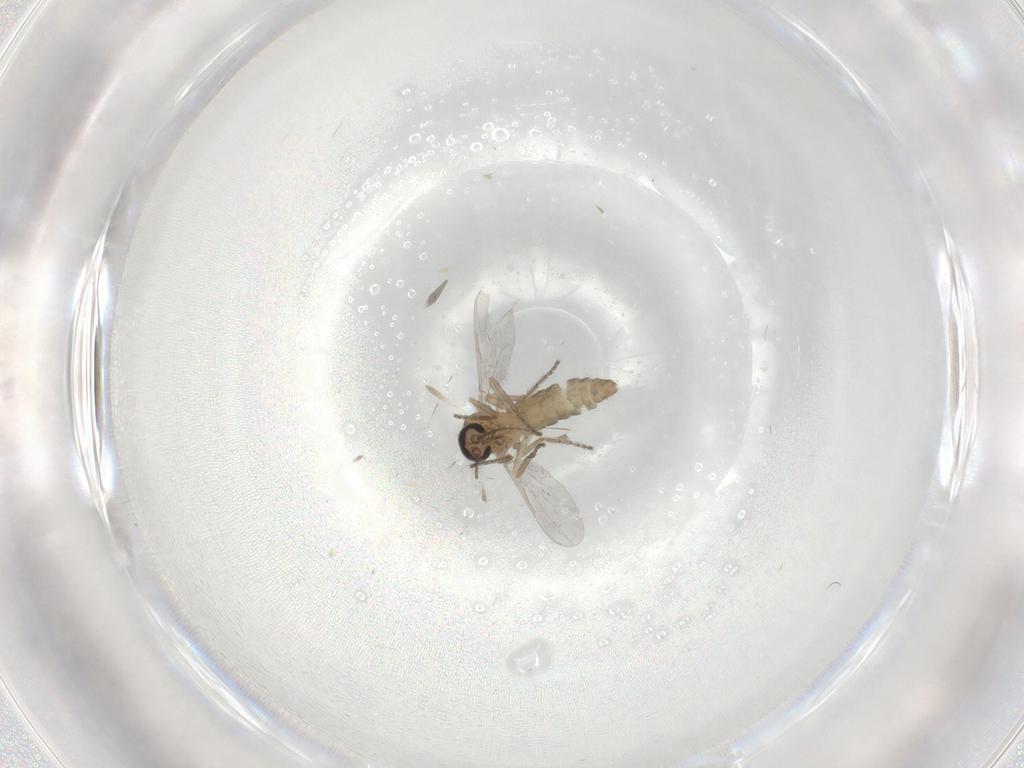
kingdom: Animalia
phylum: Arthropoda
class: Insecta
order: Diptera
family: Ceratopogonidae
